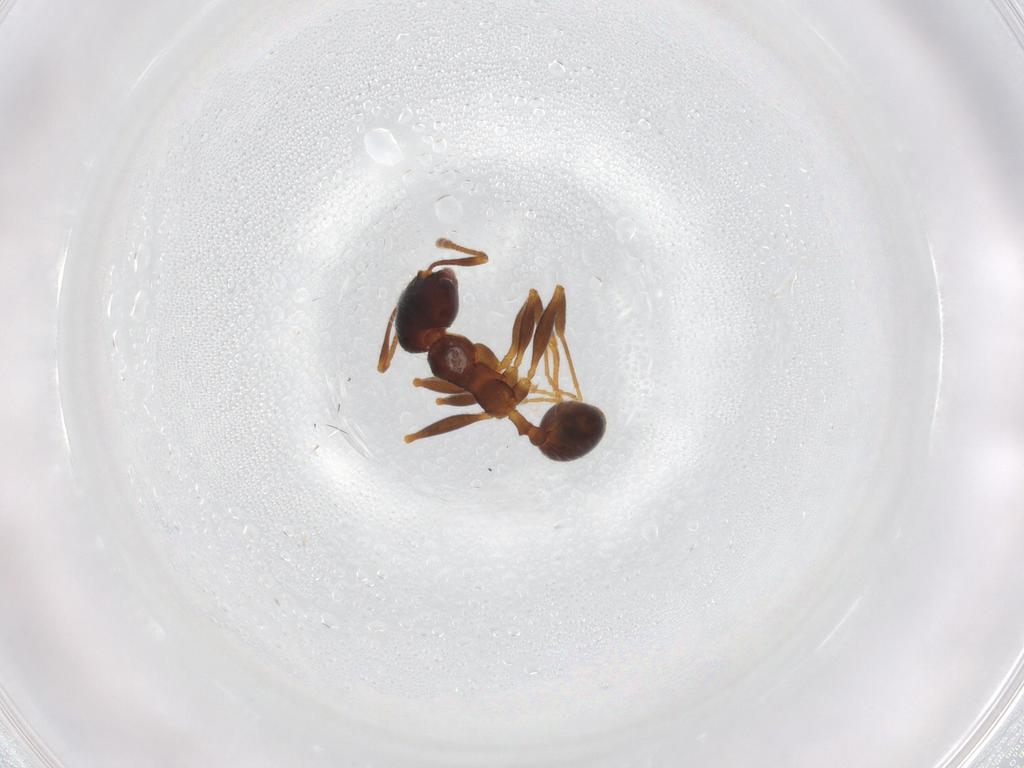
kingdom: Animalia
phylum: Arthropoda
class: Insecta
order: Hymenoptera
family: Formicidae
